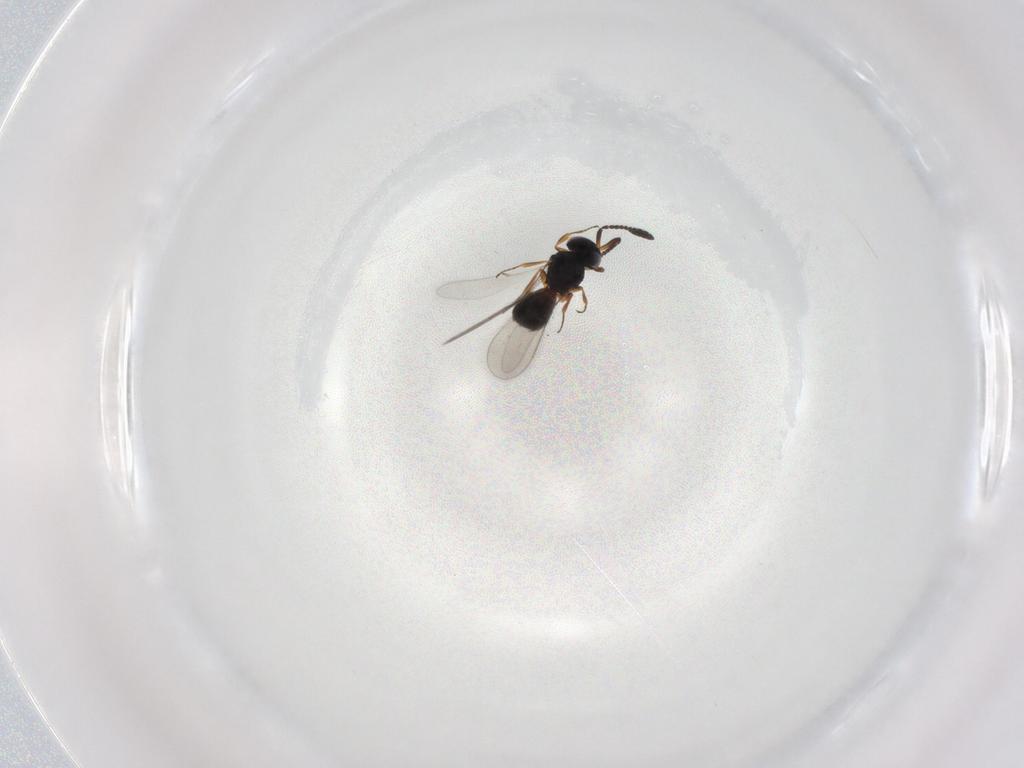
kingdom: Animalia
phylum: Arthropoda
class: Insecta
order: Hymenoptera
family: Scelionidae
